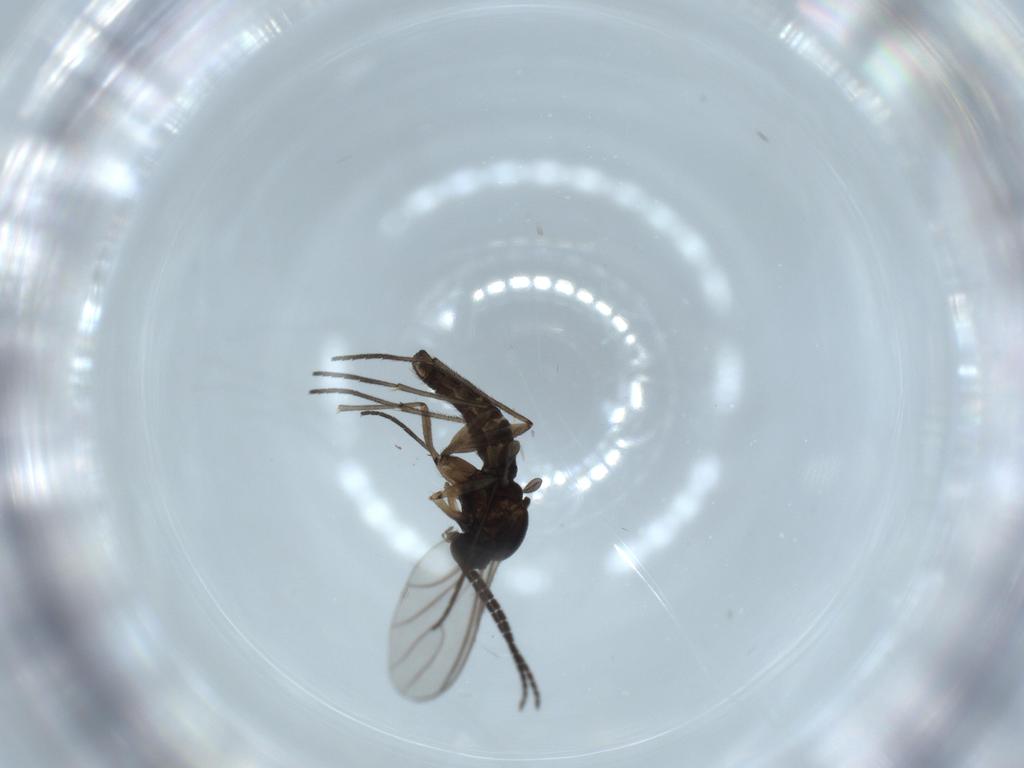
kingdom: Animalia
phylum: Arthropoda
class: Insecta
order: Diptera
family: Sciaridae
